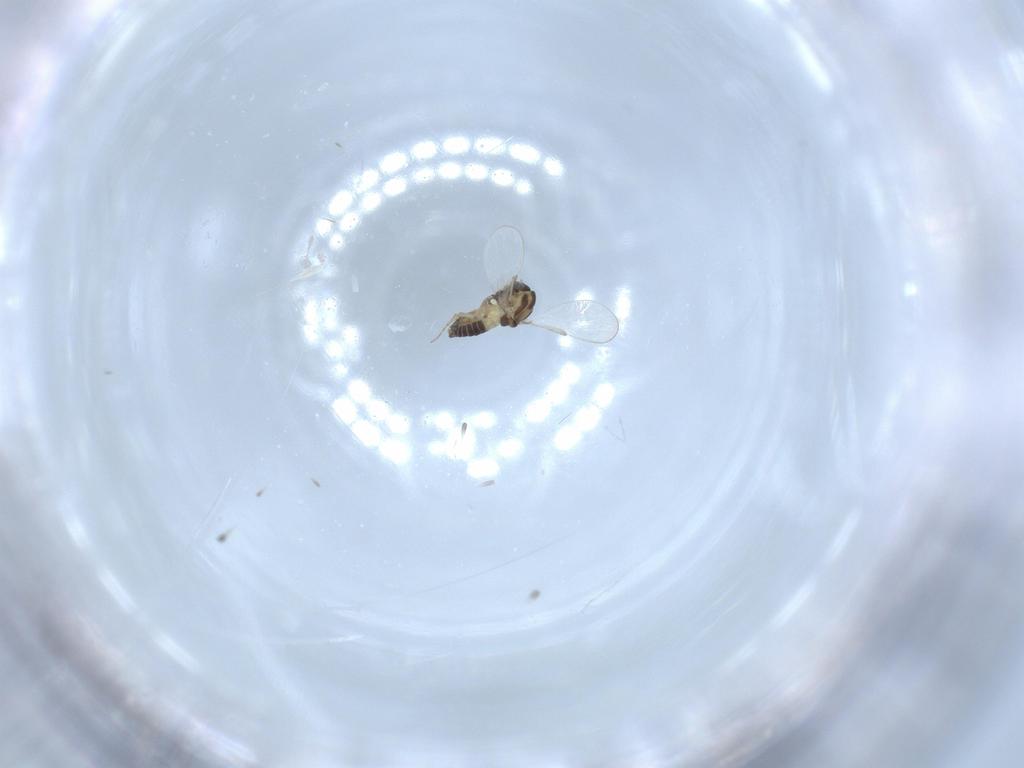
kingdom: Animalia
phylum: Arthropoda
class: Insecta
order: Diptera
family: Chironomidae
